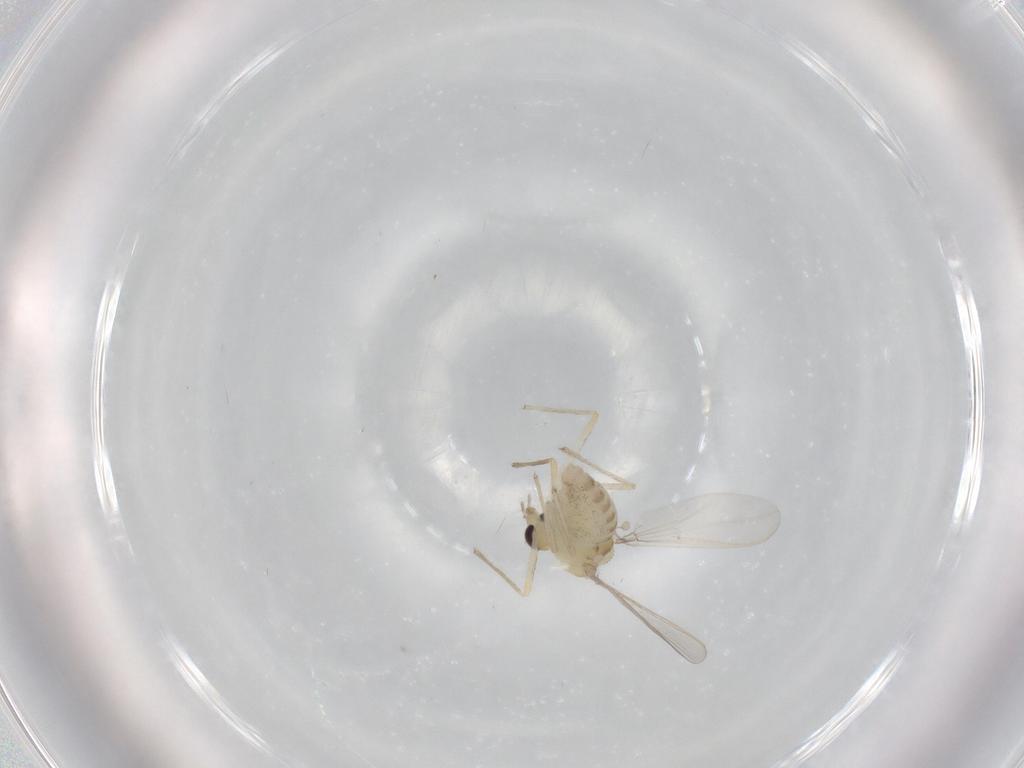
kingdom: Animalia
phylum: Arthropoda
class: Insecta
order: Diptera
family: Chironomidae
